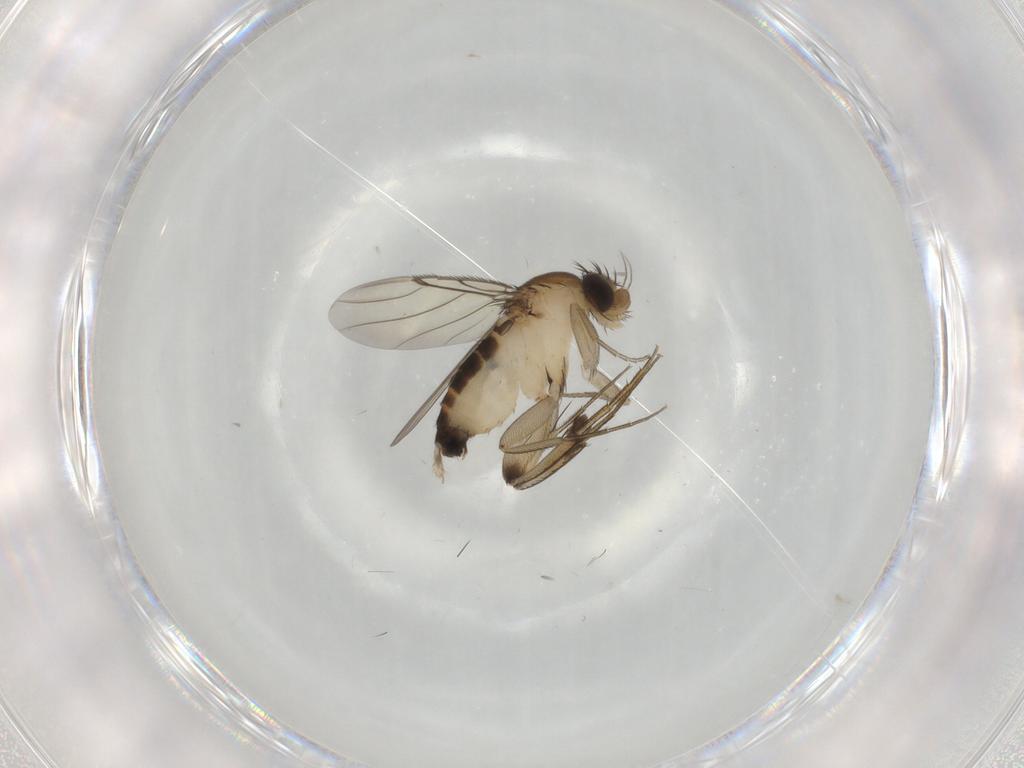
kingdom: Animalia
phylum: Arthropoda
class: Insecta
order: Diptera
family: Phoridae
